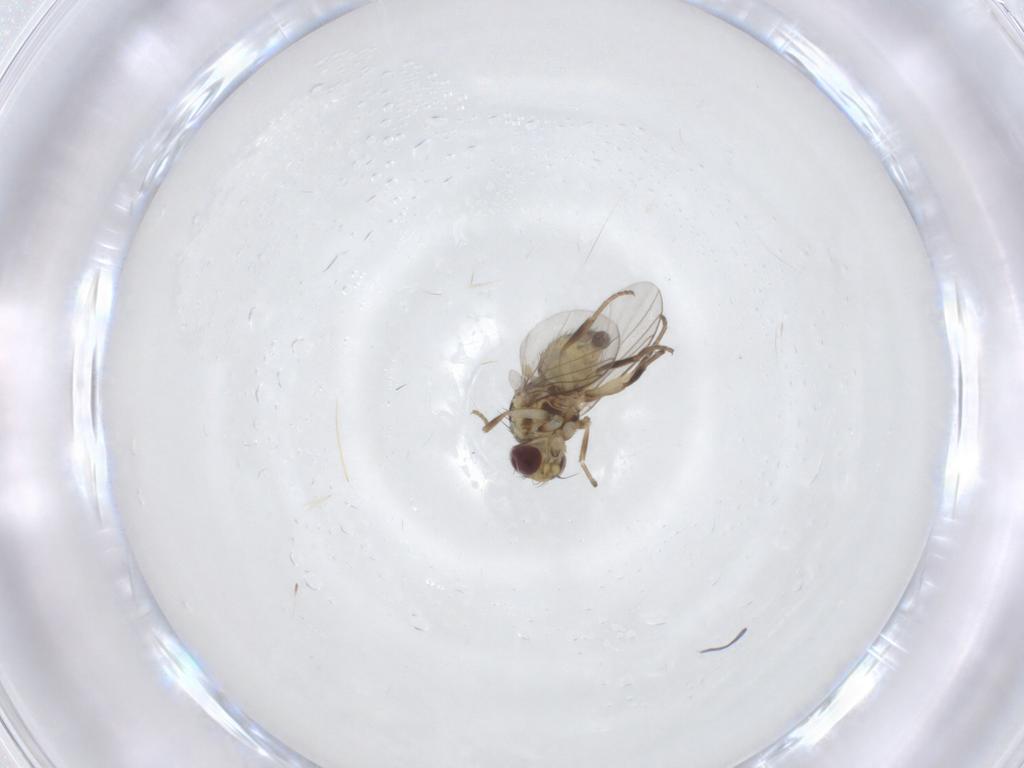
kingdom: Animalia
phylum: Arthropoda
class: Insecta
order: Diptera
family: Agromyzidae
